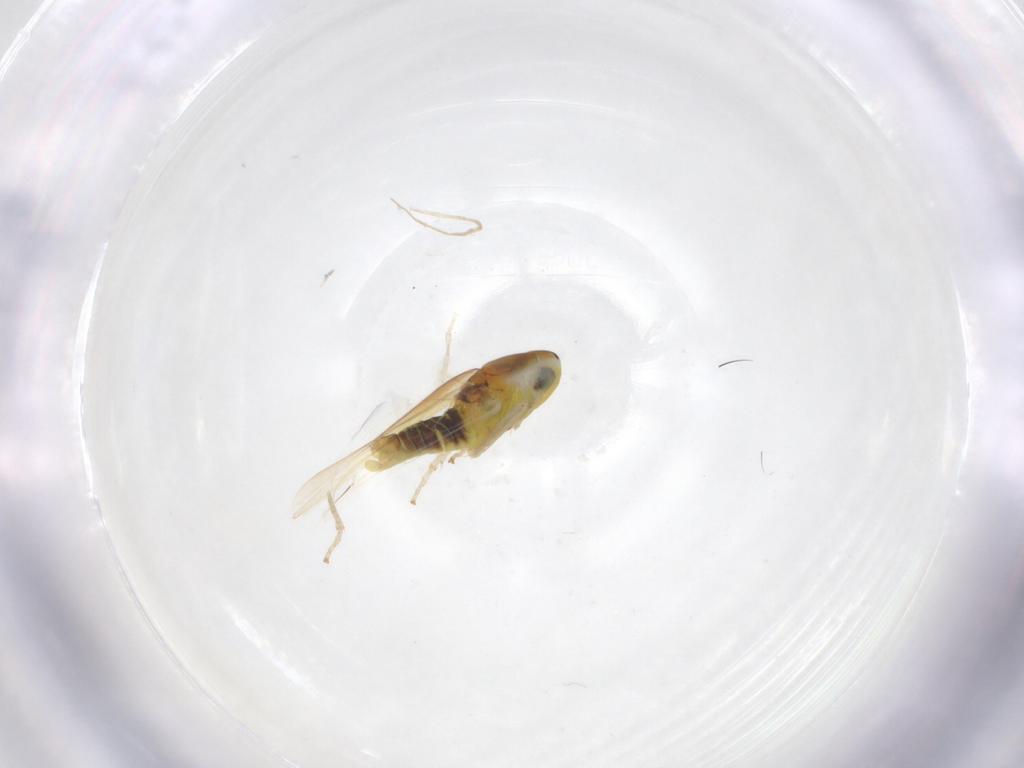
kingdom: Animalia
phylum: Arthropoda
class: Insecta
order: Hemiptera
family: Cicadellidae
